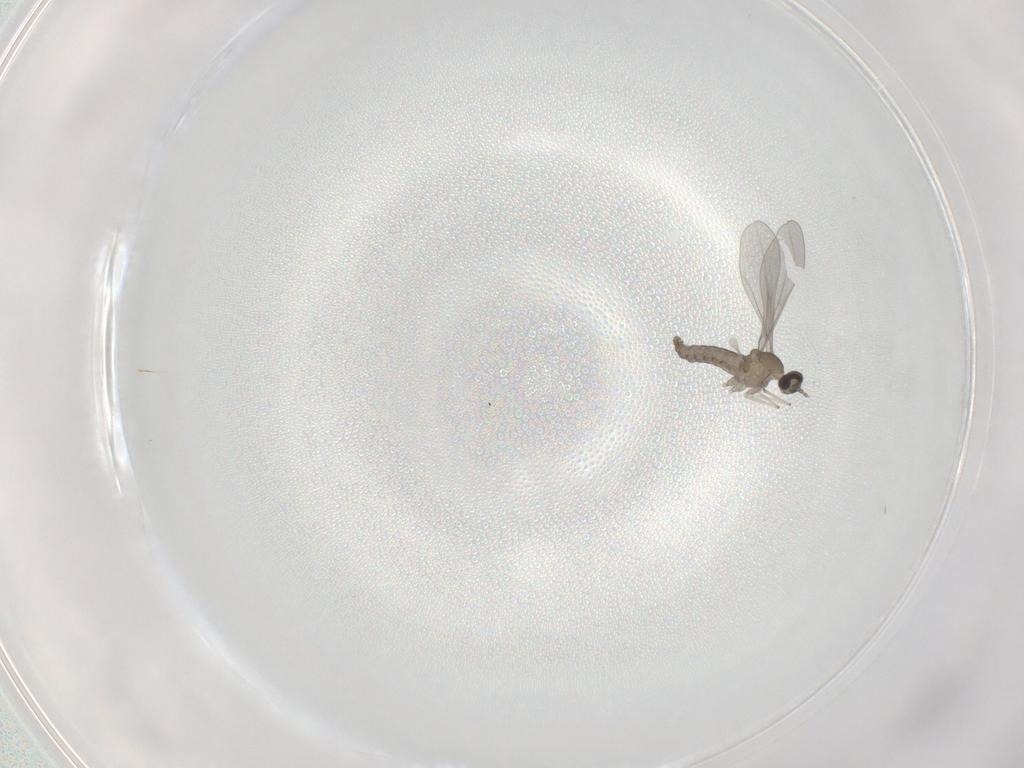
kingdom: Animalia
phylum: Arthropoda
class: Insecta
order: Diptera
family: Cecidomyiidae
